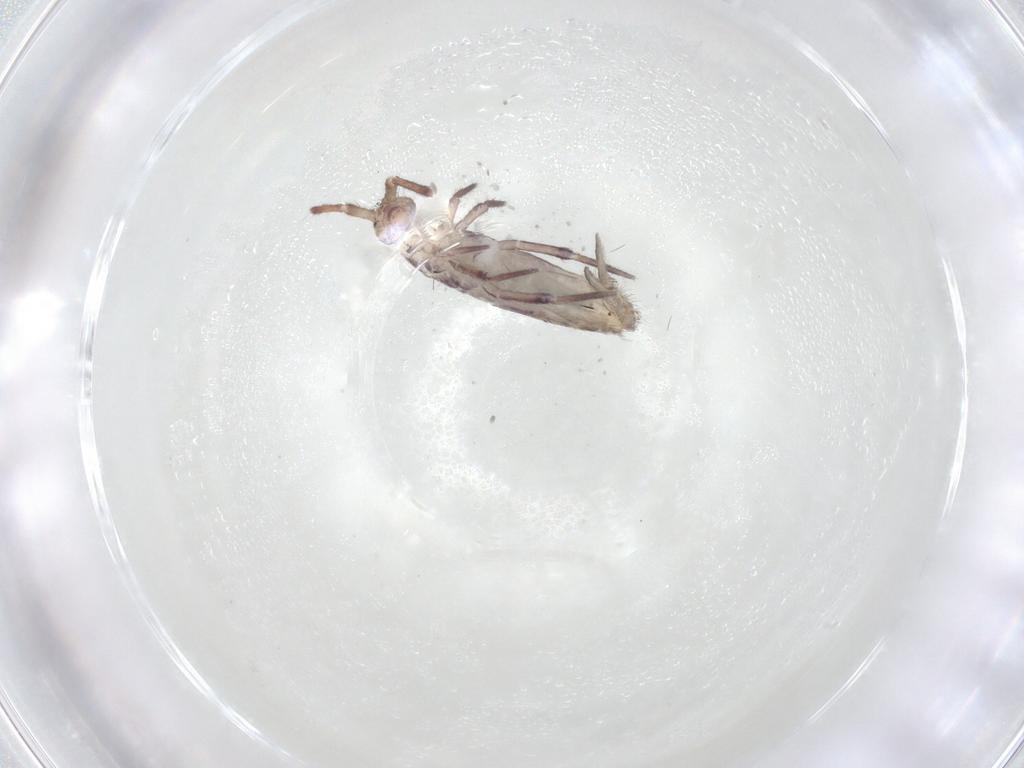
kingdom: Animalia
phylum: Arthropoda
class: Collembola
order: Entomobryomorpha
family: Entomobryidae
